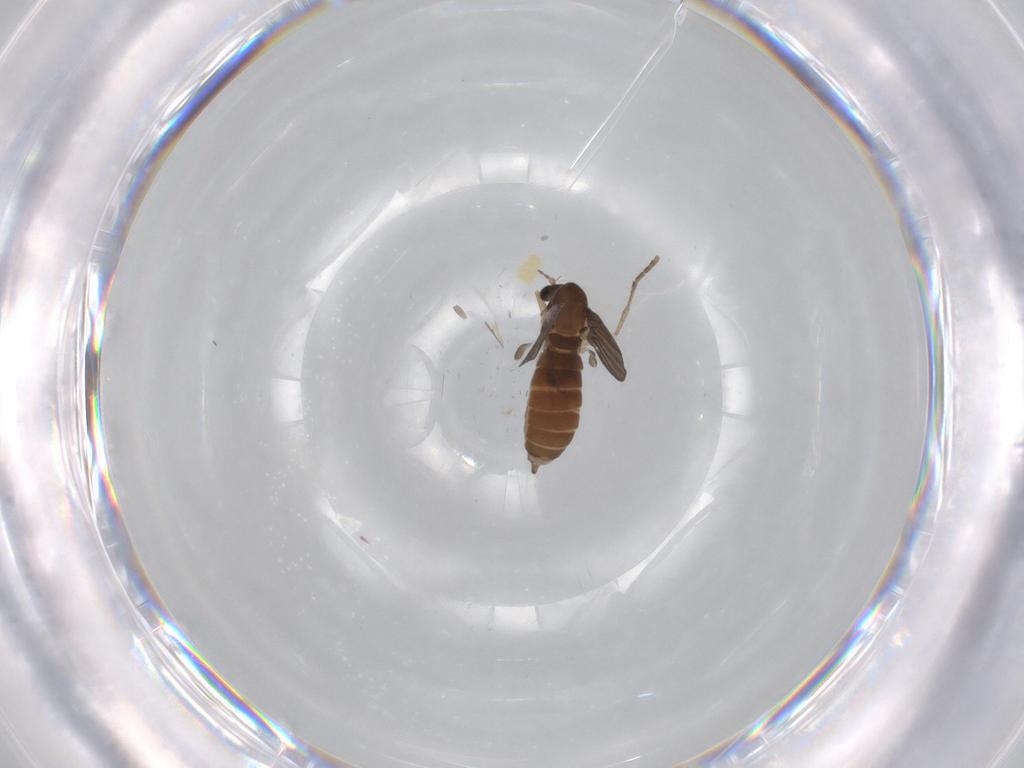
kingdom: Animalia
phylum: Arthropoda
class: Insecta
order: Diptera
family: Psychodidae
